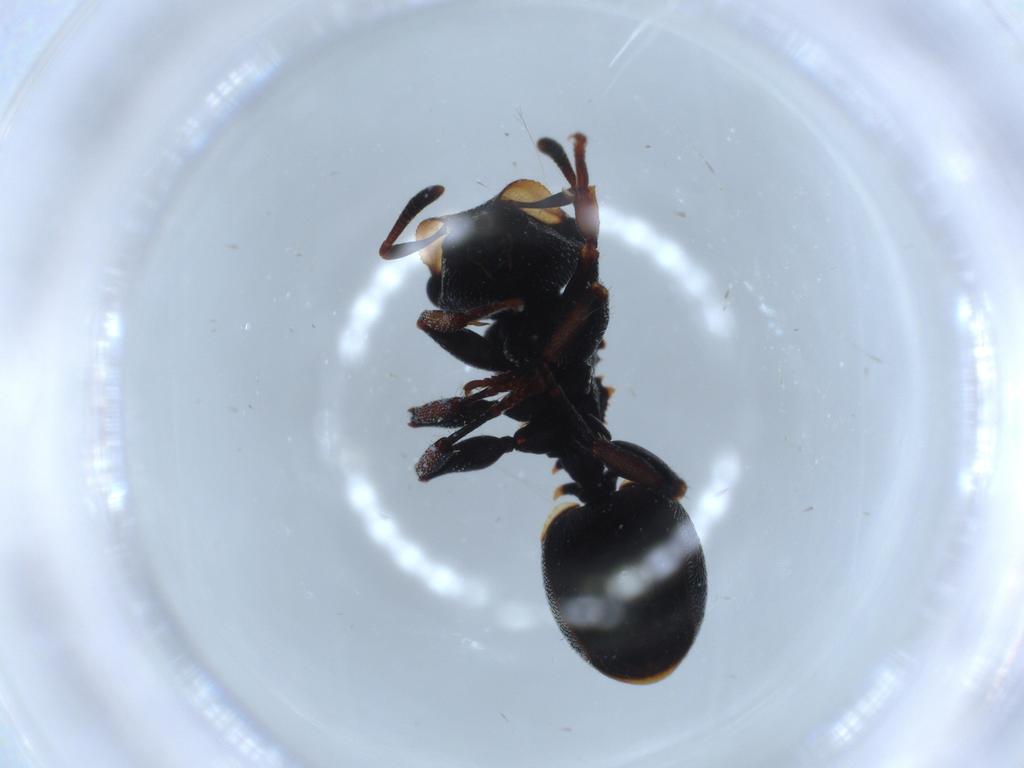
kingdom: Animalia
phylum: Arthropoda
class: Insecta
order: Hymenoptera
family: Formicidae
